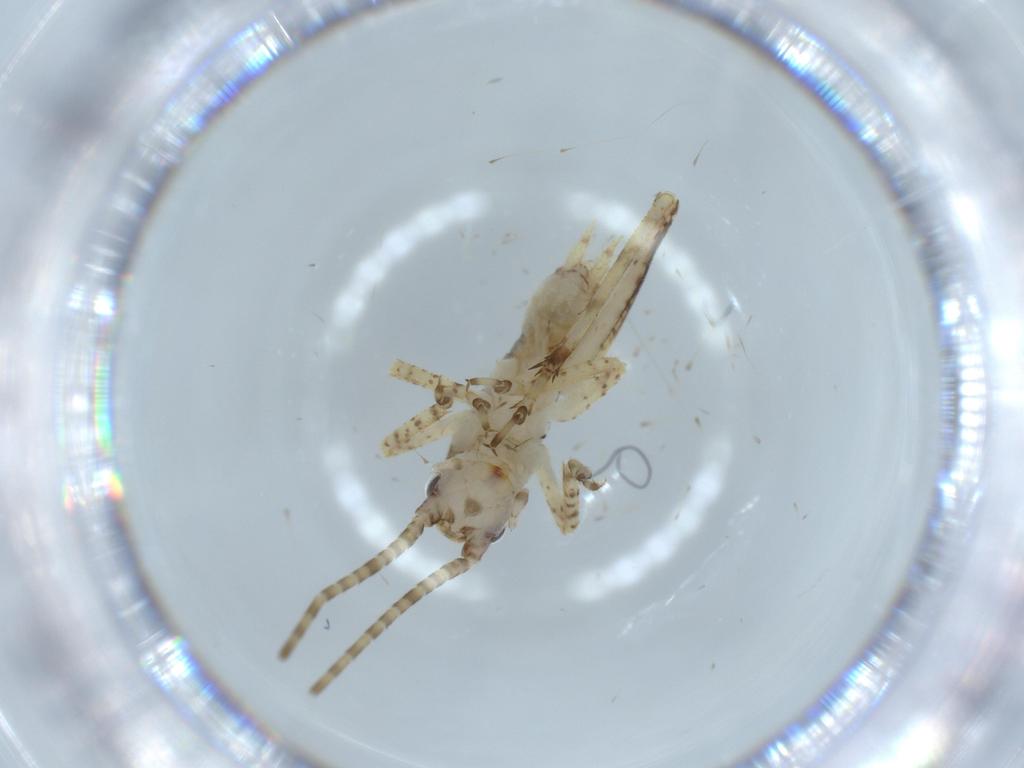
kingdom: Animalia
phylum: Arthropoda
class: Insecta
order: Orthoptera
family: Gryllidae
